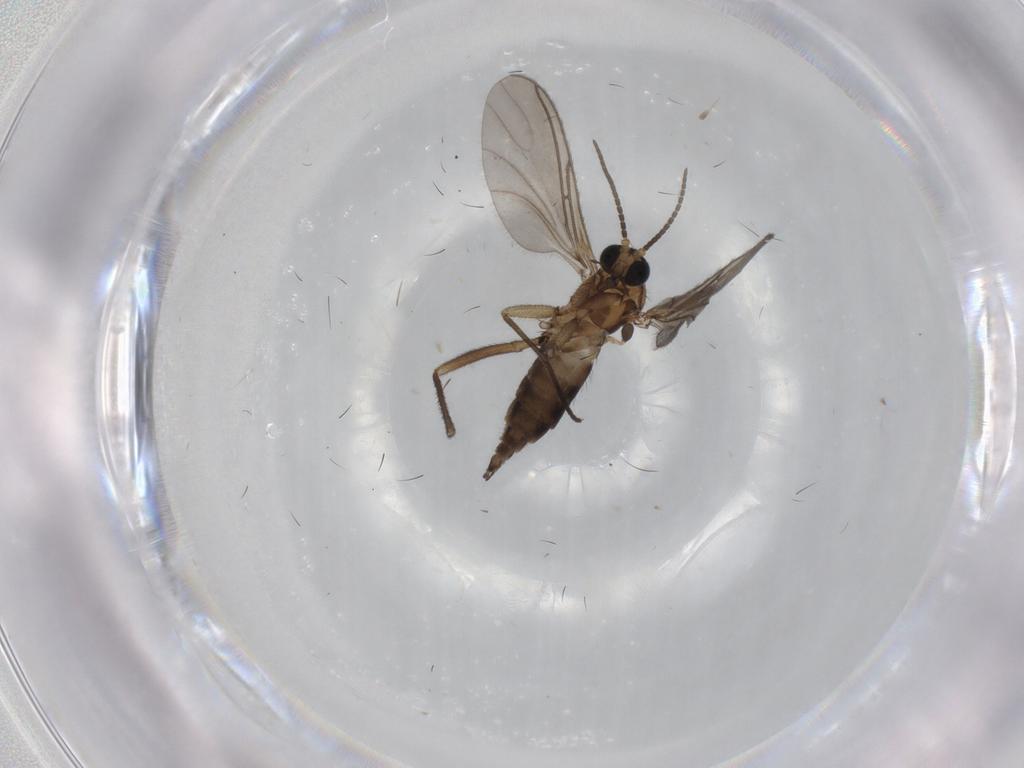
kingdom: Animalia
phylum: Arthropoda
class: Insecta
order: Diptera
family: Sciaridae
